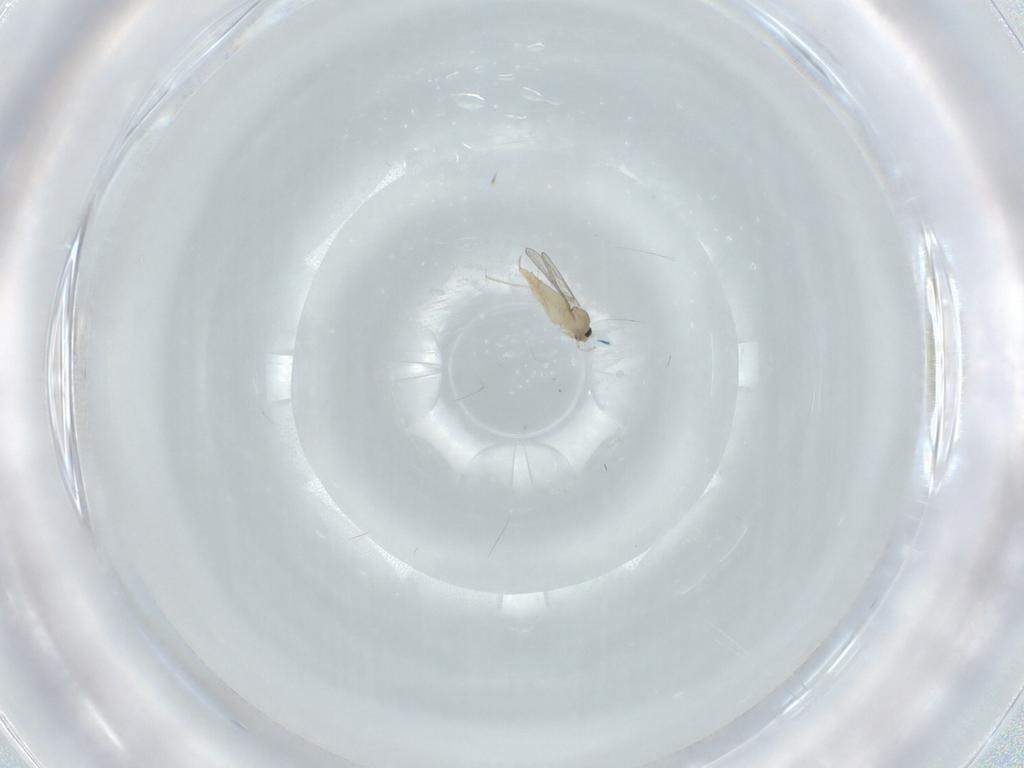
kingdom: Animalia
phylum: Arthropoda
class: Insecta
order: Diptera
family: Cecidomyiidae
